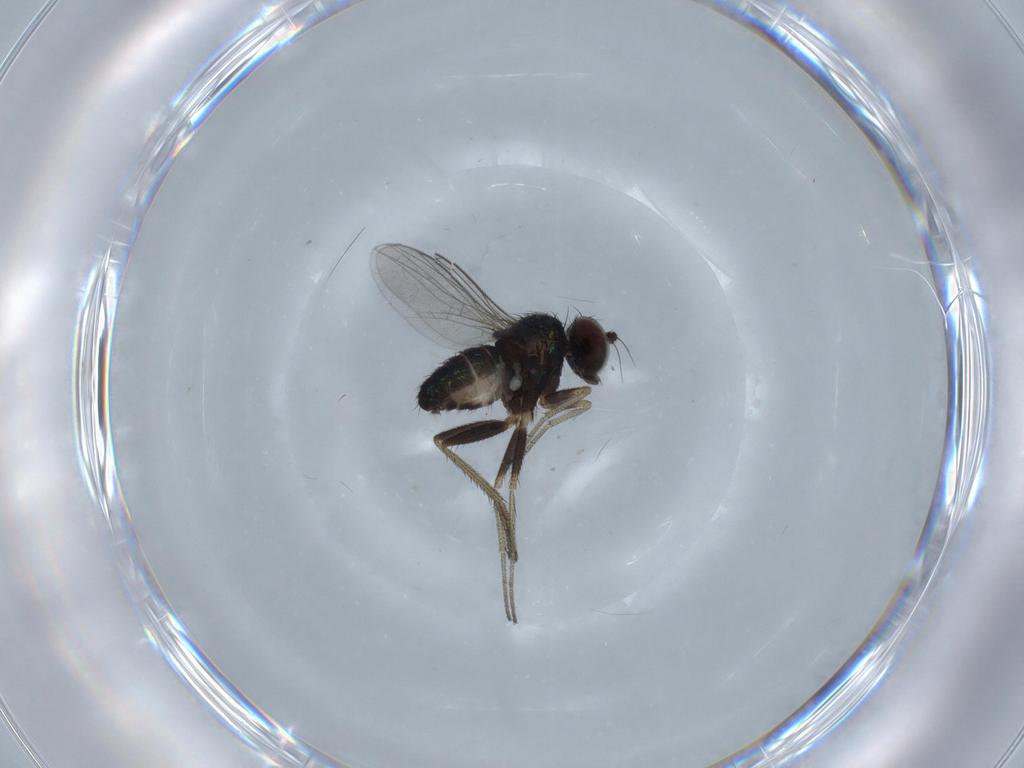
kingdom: Animalia
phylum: Arthropoda
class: Insecta
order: Diptera
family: Dolichopodidae
